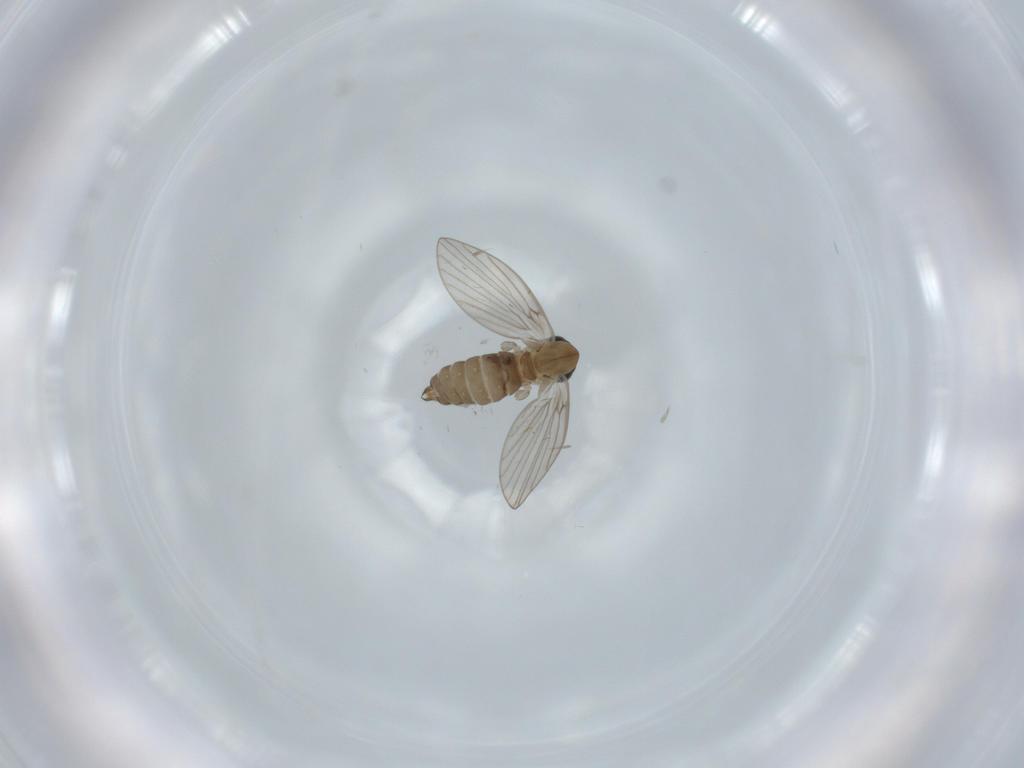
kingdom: Animalia
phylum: Arthropoda
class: Insecta
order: Diptera
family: Psychodidae
